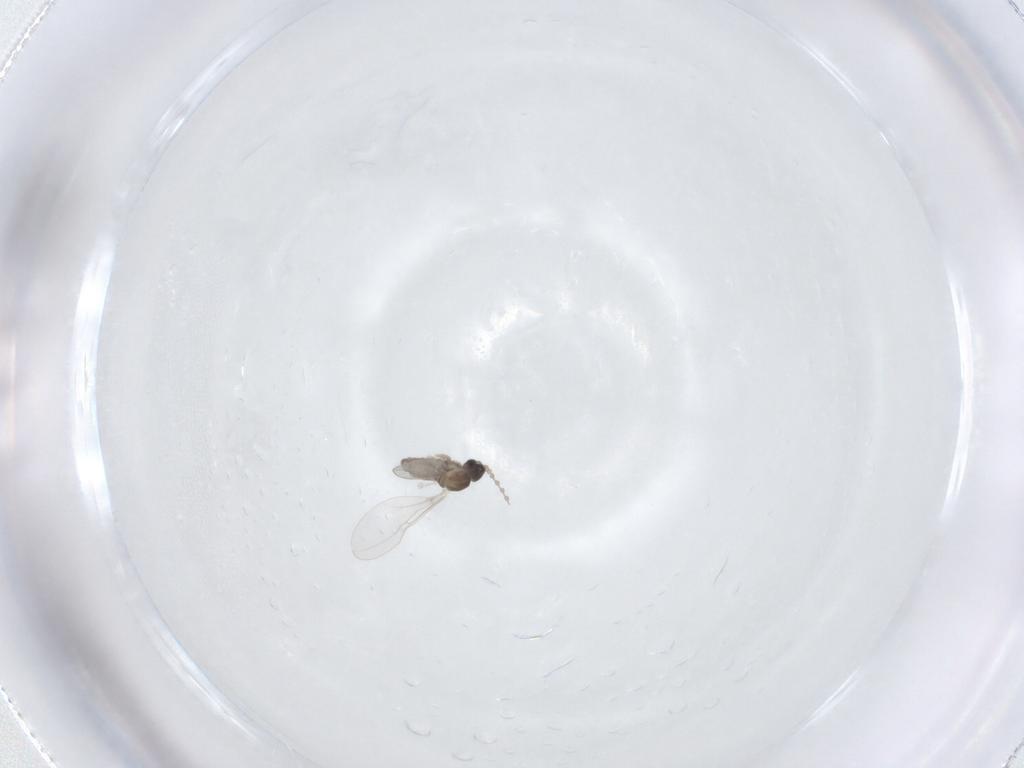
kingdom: Animalia
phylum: Arthropoda
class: Insecta
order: Diptera
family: Cecidomyiidae
